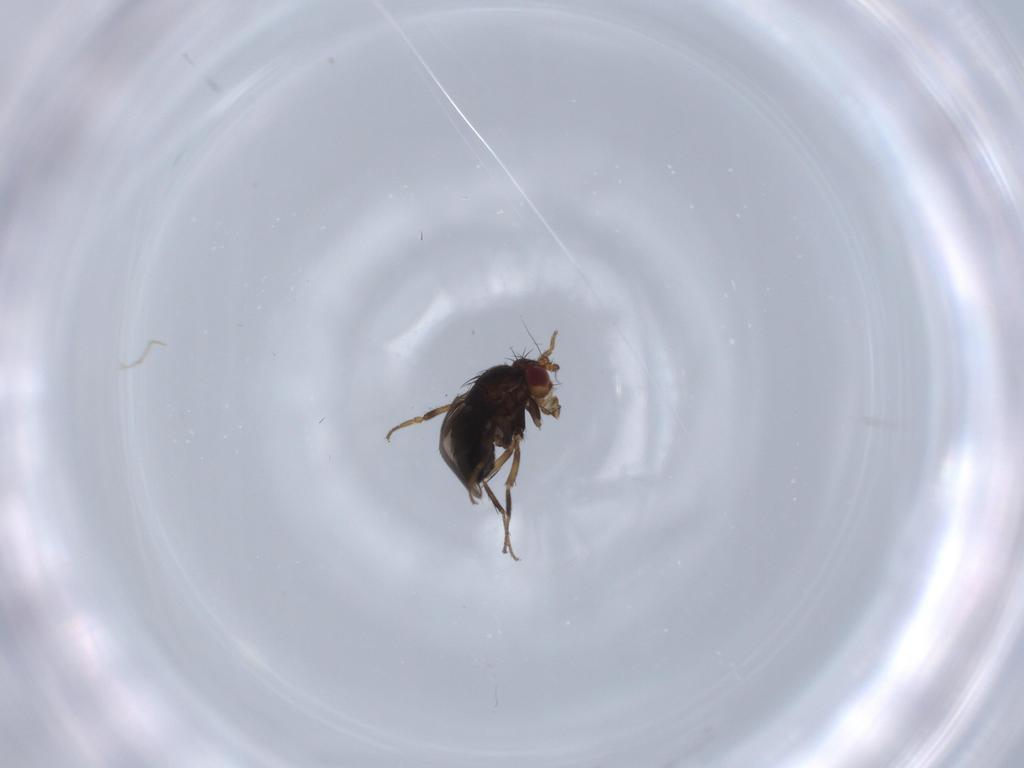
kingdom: Animalia
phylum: Arthropoda
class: Insecta
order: Diptera
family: Sphaeroceridae
